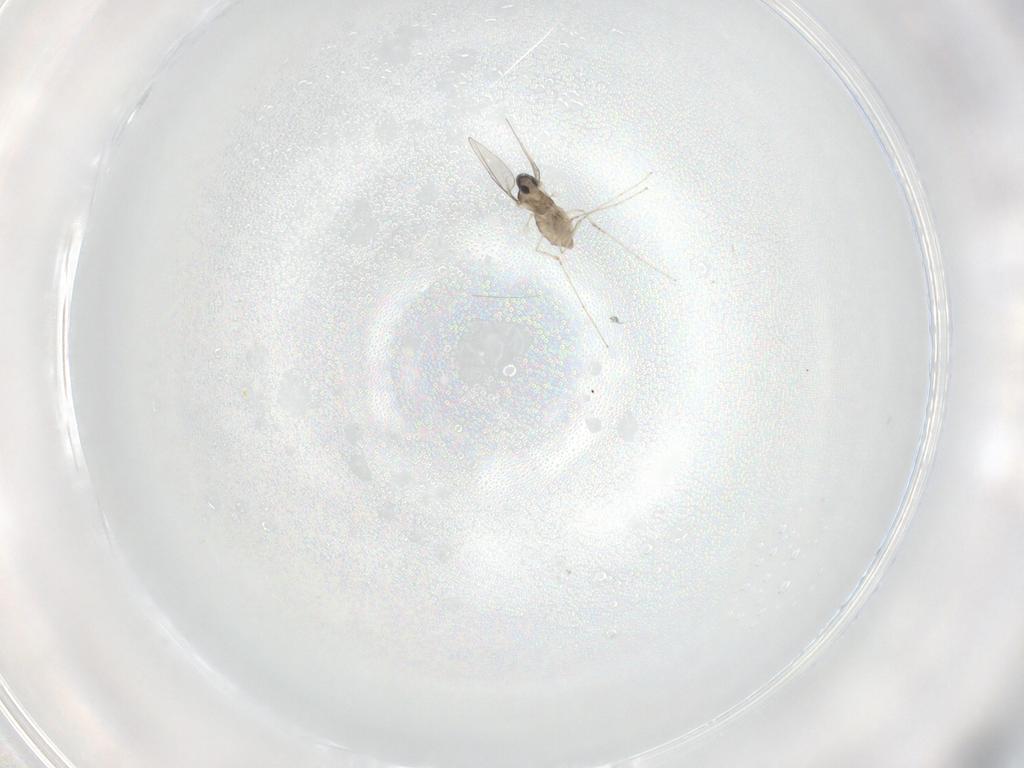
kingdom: Animalia
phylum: Arthropoda
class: Insecta
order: Diptera
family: Cecidomyiidae
